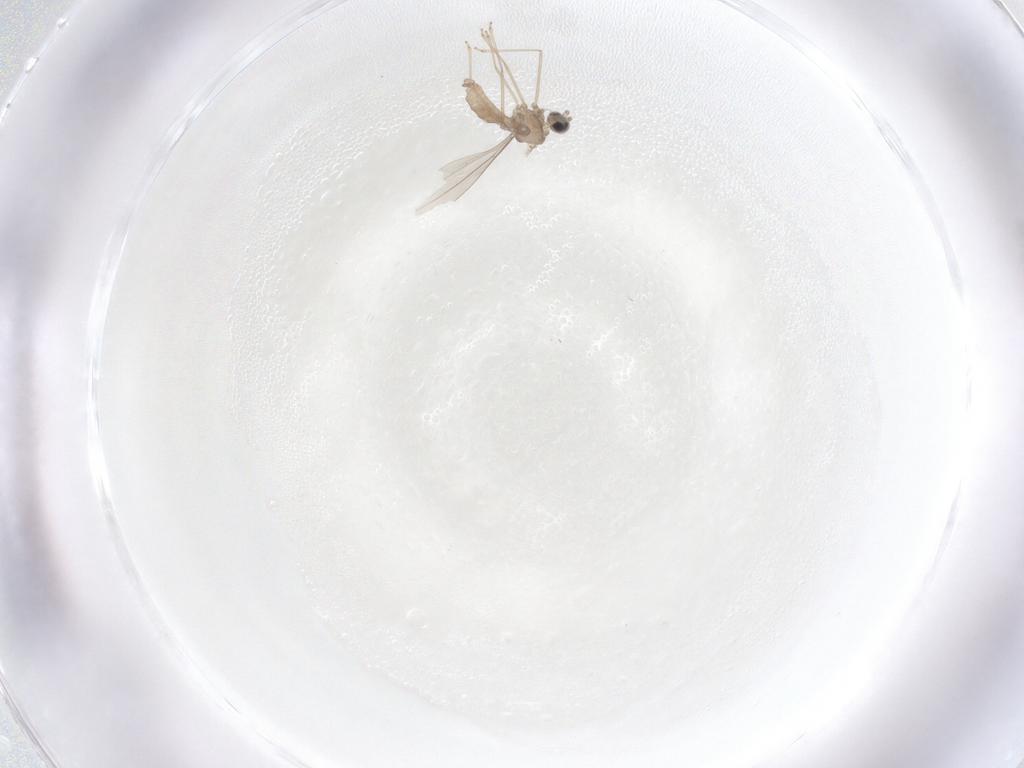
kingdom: Animalia
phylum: Arthropoda
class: Insecta
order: Diptera
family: Cecidomyiidae
